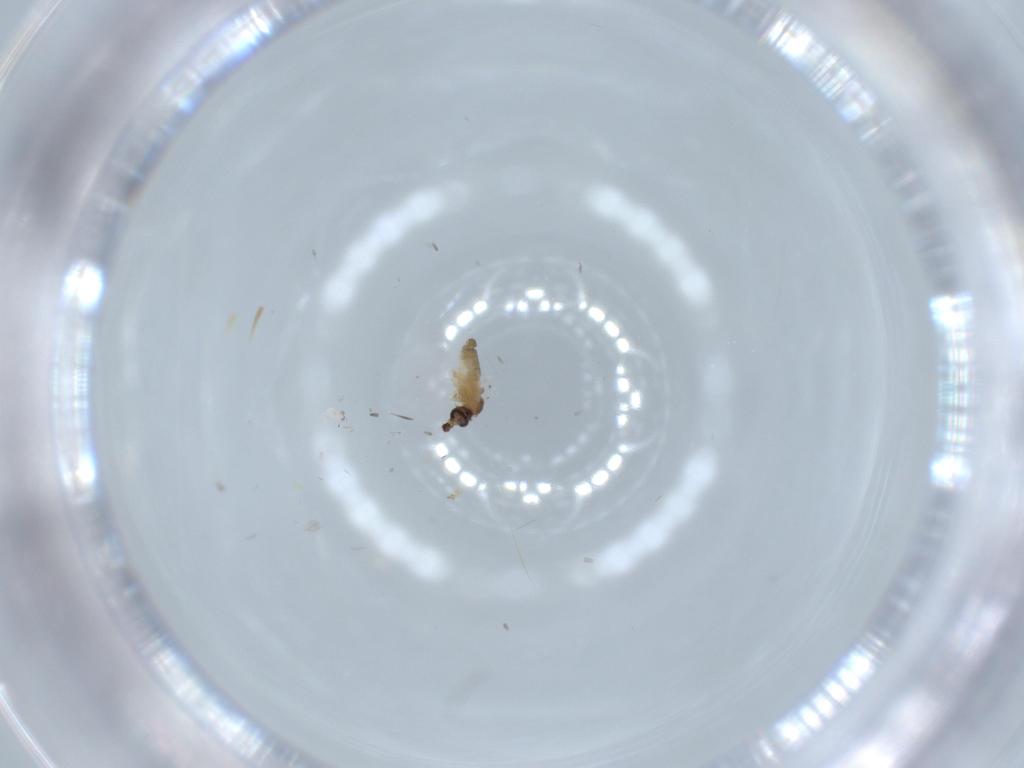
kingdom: Animalia
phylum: Arthropoda
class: Insecta
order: Diptera
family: Cecidomyiidae
